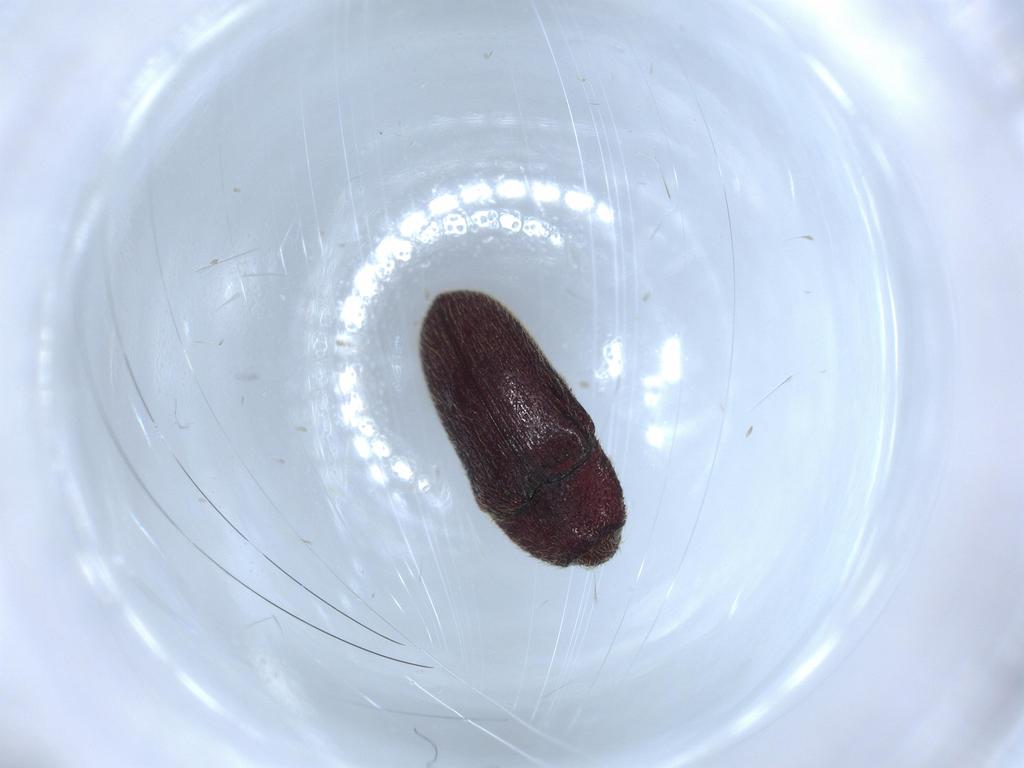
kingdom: Animalia
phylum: Arthropoda
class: Insecta
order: Coleoptera
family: Throscidae
